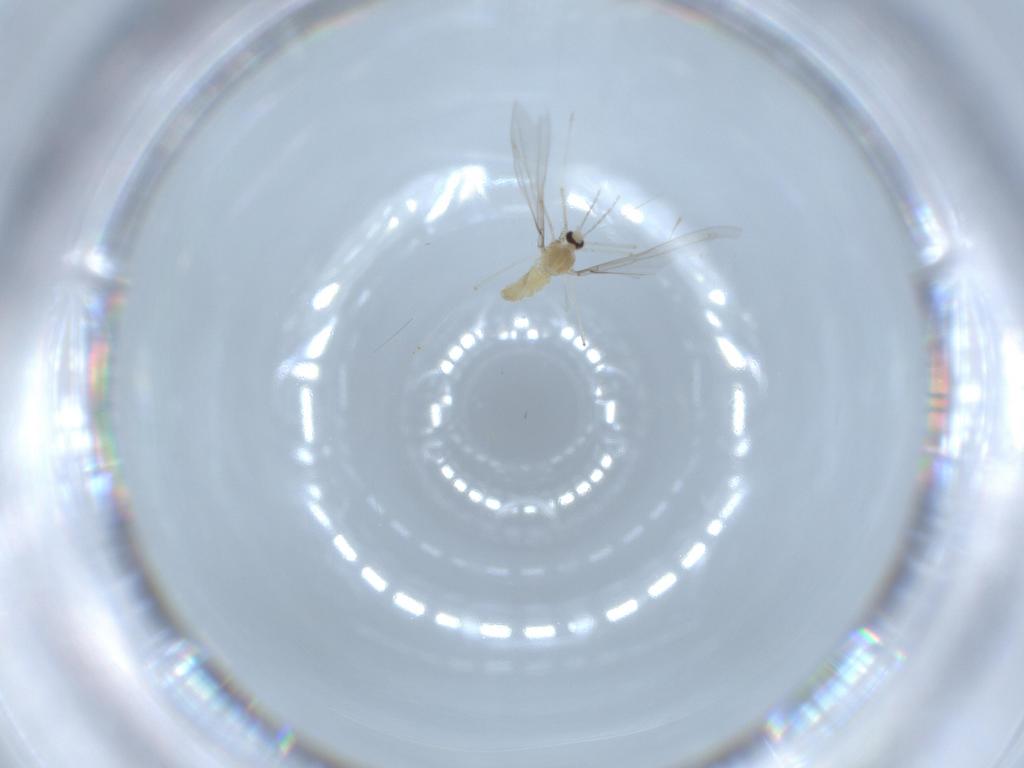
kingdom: Animalia
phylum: Arthropoda
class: Insecta
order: Diptera
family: Cecidomyiidae
